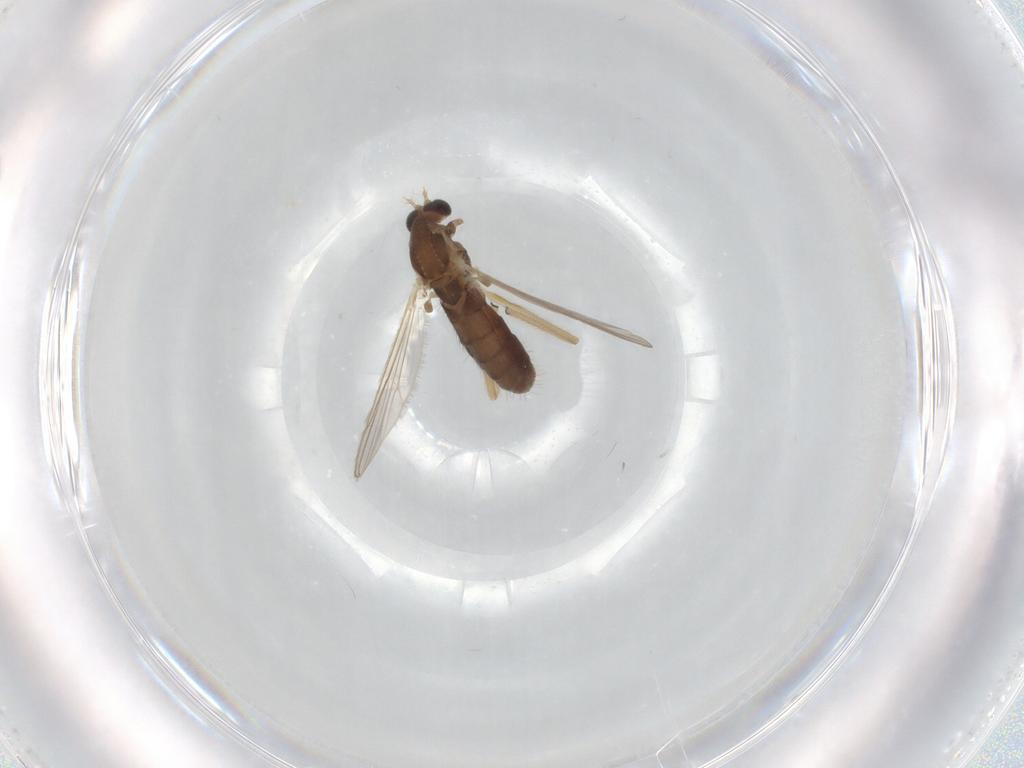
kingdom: Animalia
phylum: Arthropoda
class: Insecta
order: Diptera
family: Chironomidae
